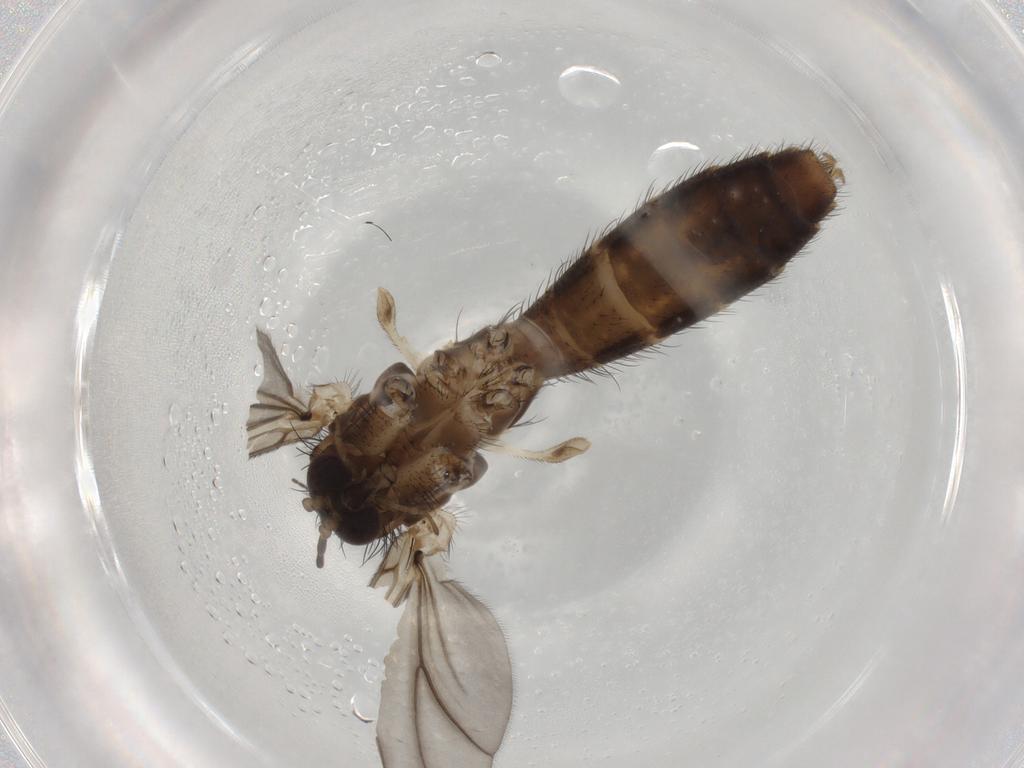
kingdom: Animalia
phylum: Arthropoda
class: Insecta
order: Diptera
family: Mycetophilidae
